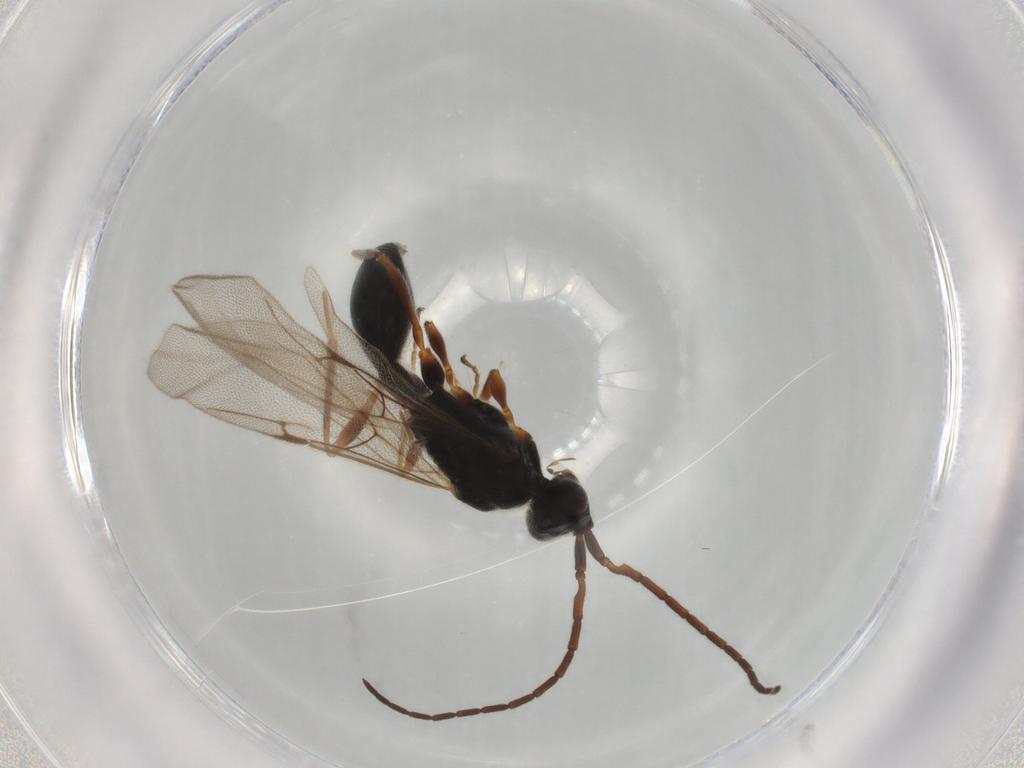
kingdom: Animalia
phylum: Arthropoda
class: Insecta
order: Hymenoptera
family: Diapriidae
